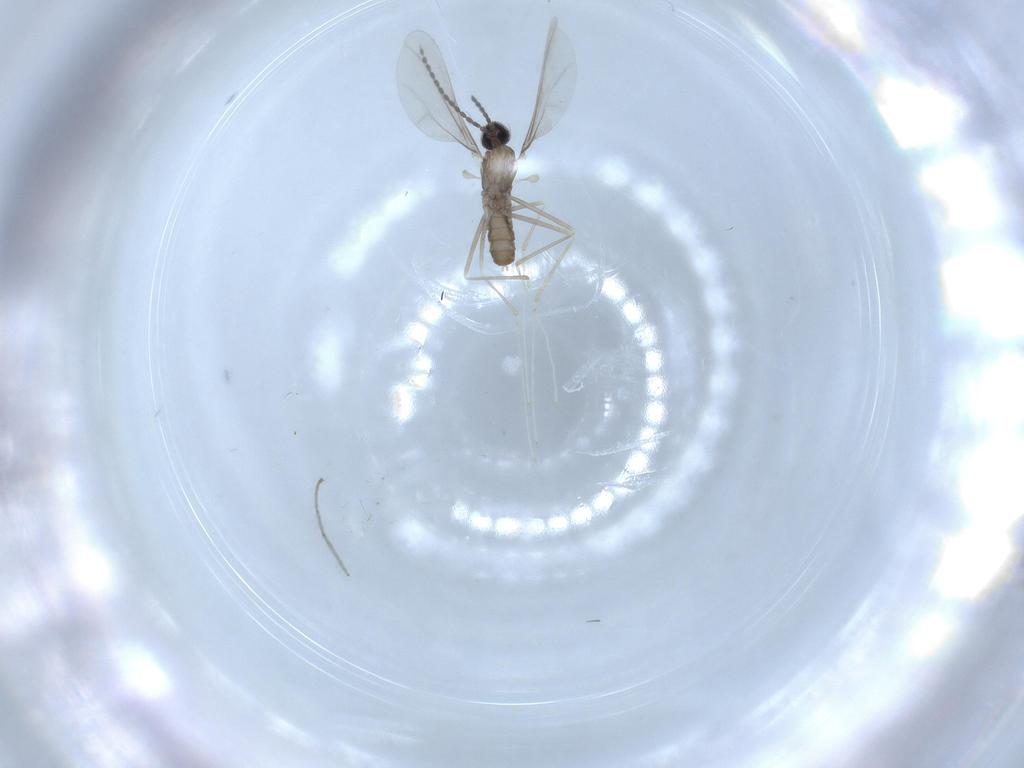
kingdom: Animalia
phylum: Arthropoda
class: Insecta
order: Diptera
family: Cecidomyiidae
